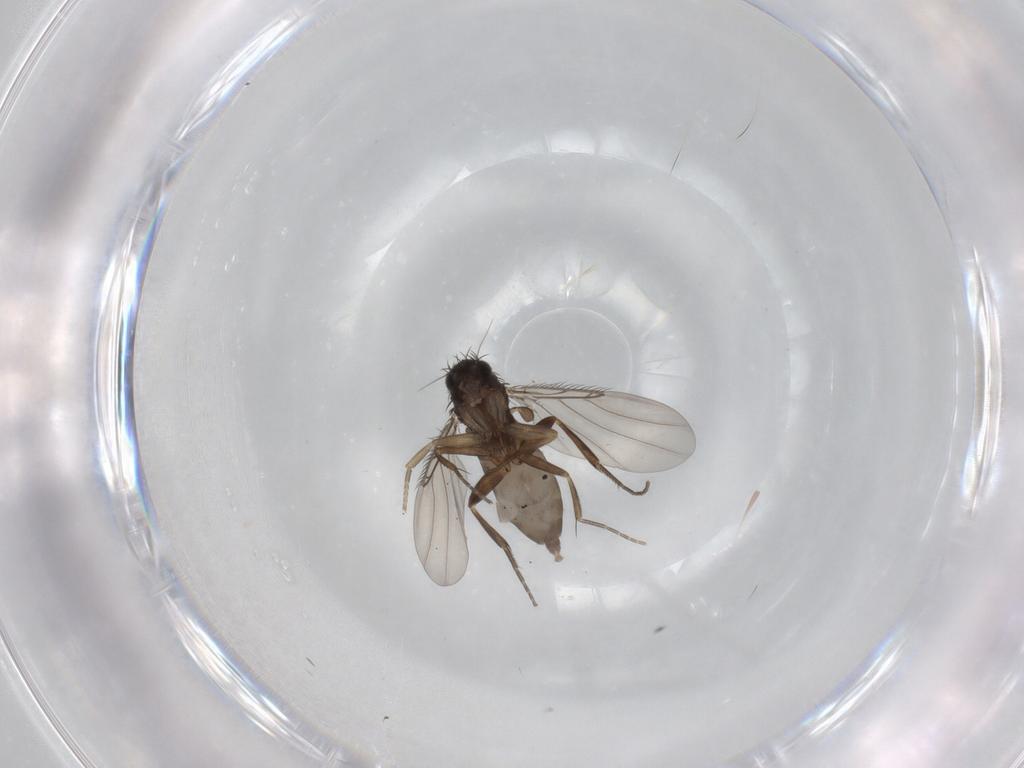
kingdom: Animalia
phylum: Arthropoda
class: Insecta
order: Diptera
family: Phoridae
